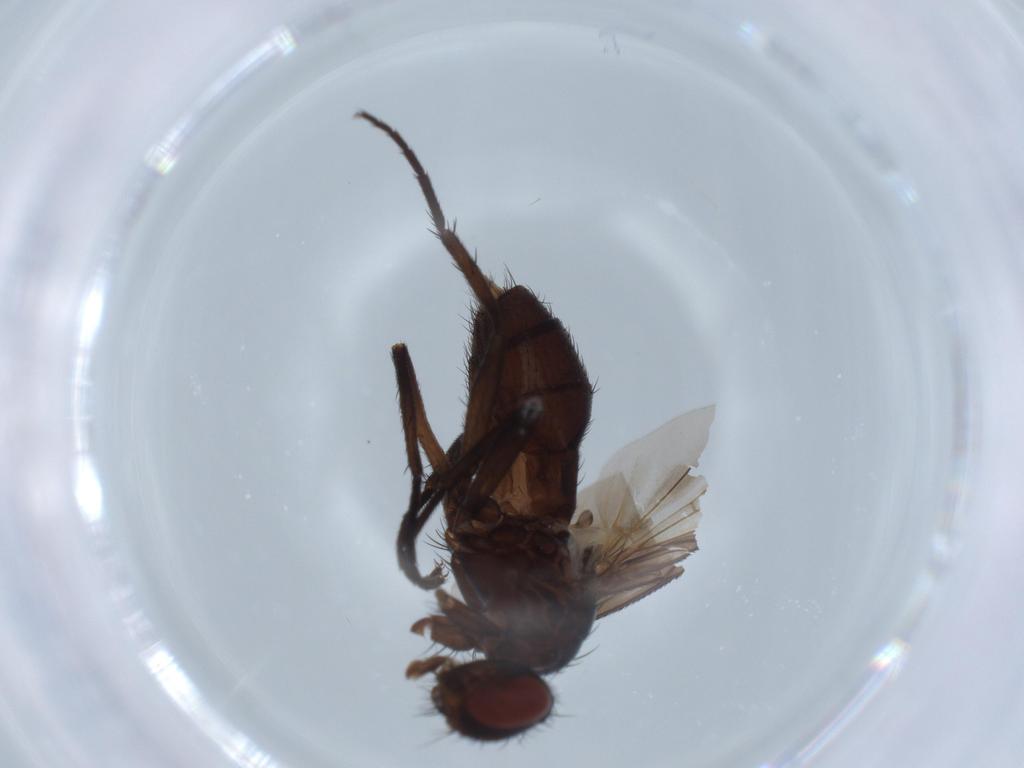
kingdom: Animalia
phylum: Arthropoda
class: Insecta
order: Diptera
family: Tachinidae
